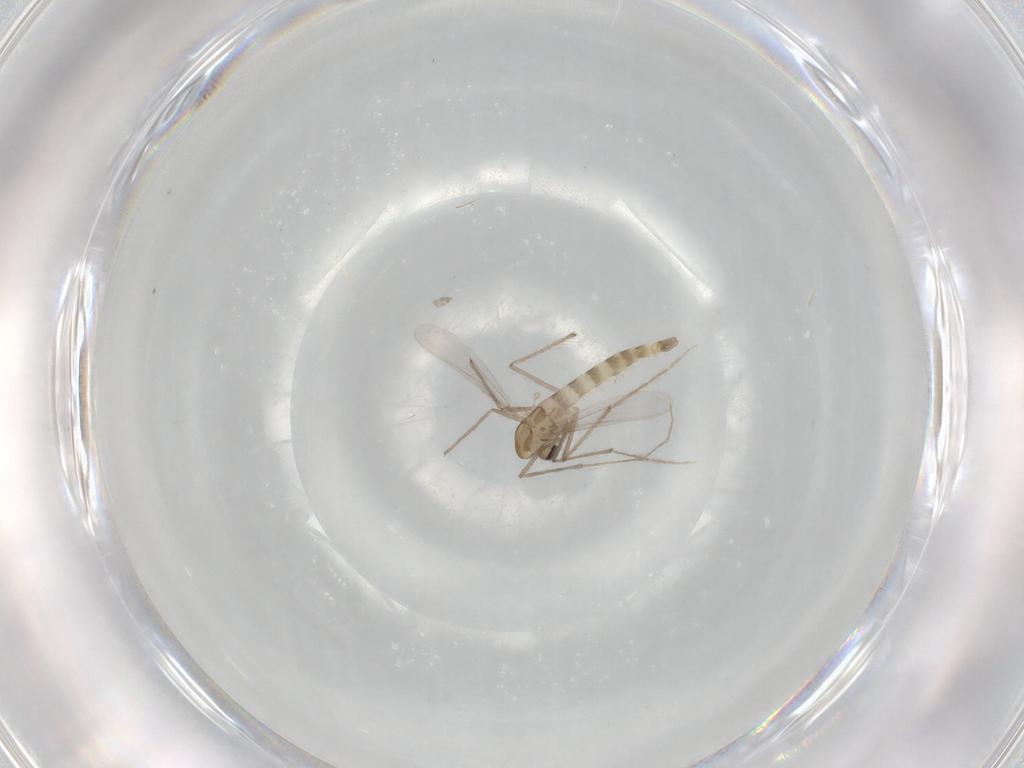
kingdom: Animalia
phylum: Arthropoda
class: Insecta
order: Diptera
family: Chironomidae
